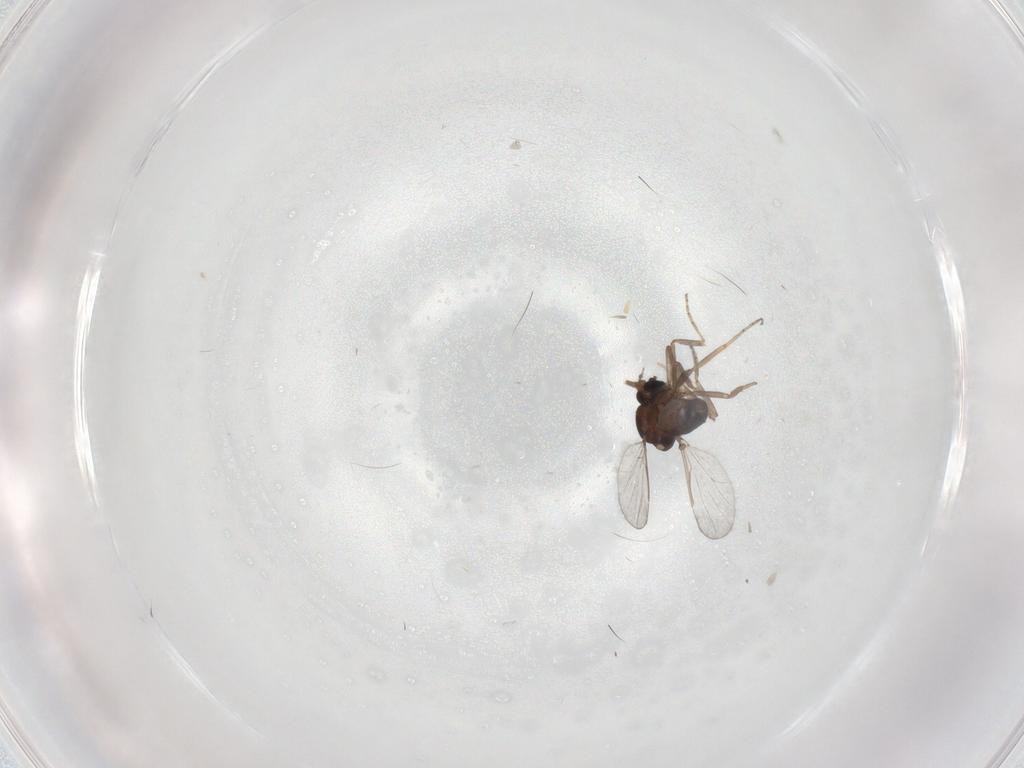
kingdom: Animalia
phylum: Arthropoda
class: Insecta
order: Diptera
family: Ceratopogonidae
